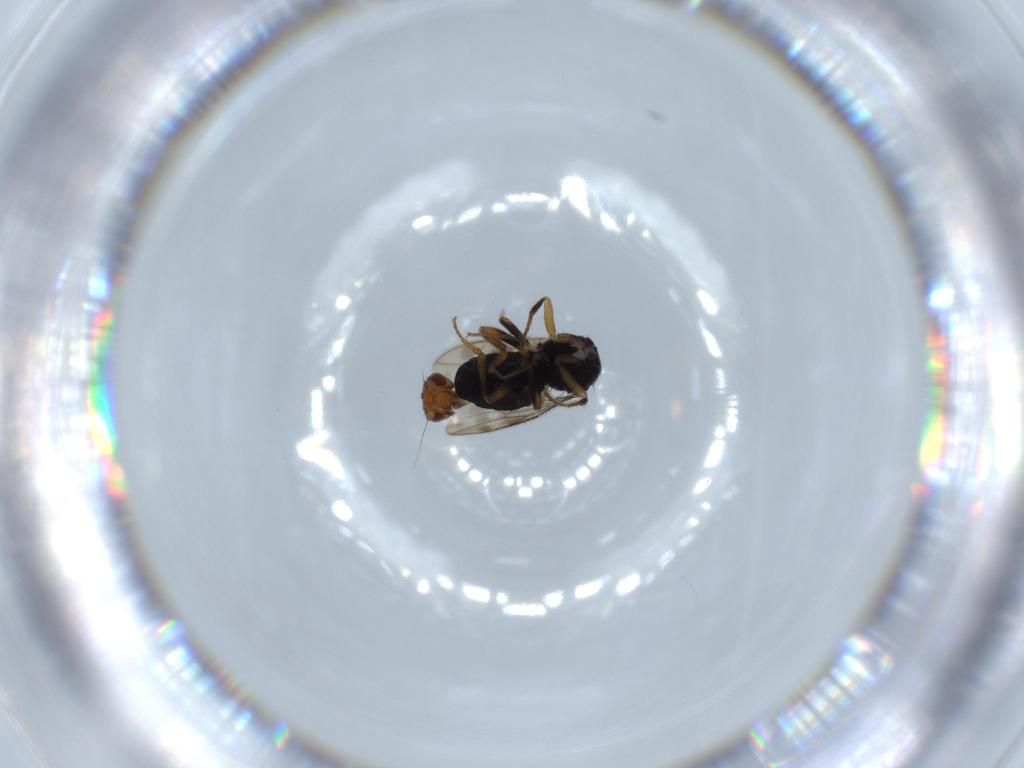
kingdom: Animalia
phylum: Arthropoda
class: Insecta
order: Diptera
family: Sphaeroceridae
